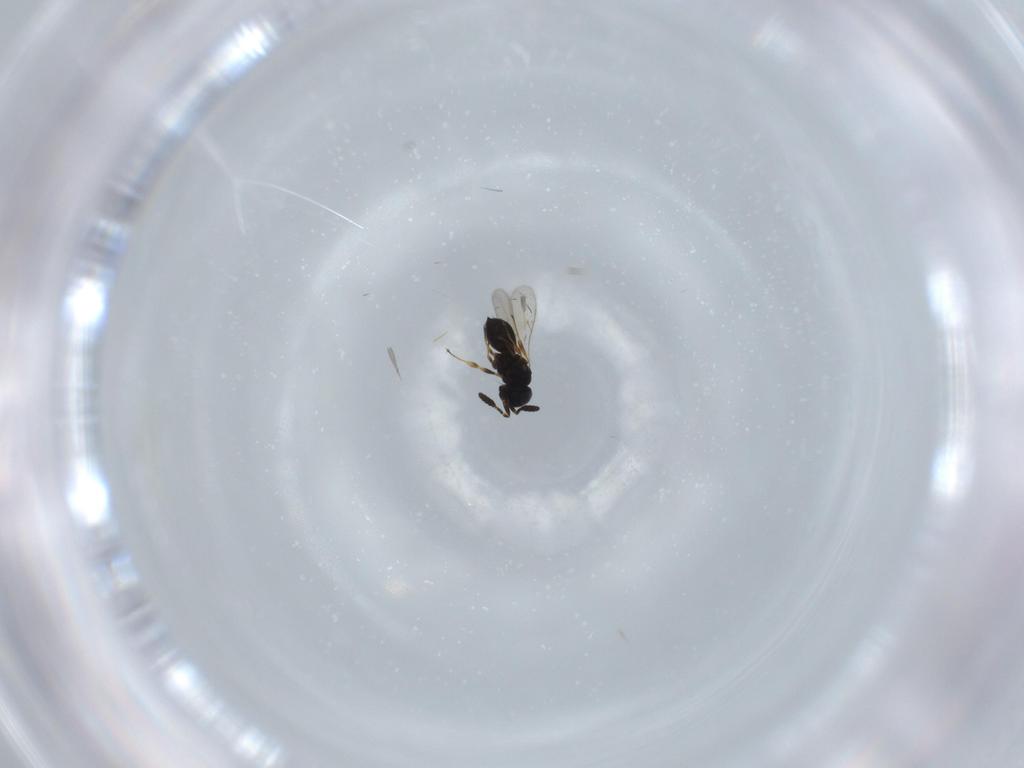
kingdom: Animalia
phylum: Arthropoda
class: Insecta
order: Hymenoptera
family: Scelionidae
